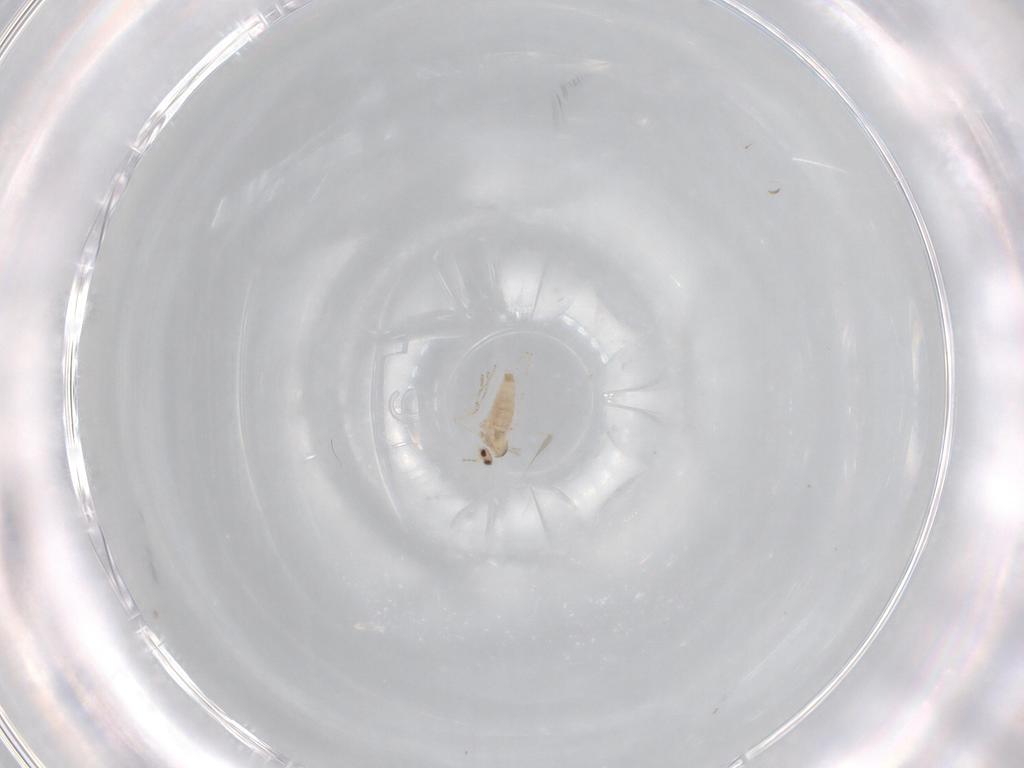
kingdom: Animalia
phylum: Arthropoda
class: Insecta
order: Diptera
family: Cecidomyiidae
